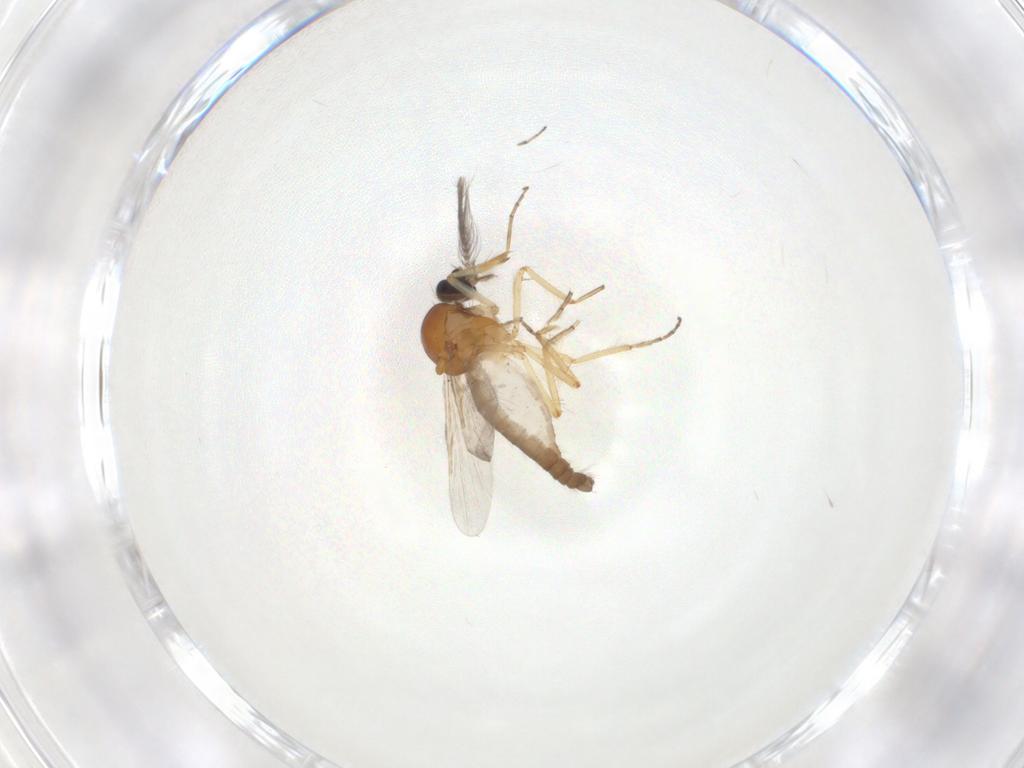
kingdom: Animalia
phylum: Arthropoda
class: Insecta
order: Diptera
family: Ceratopogonidae
